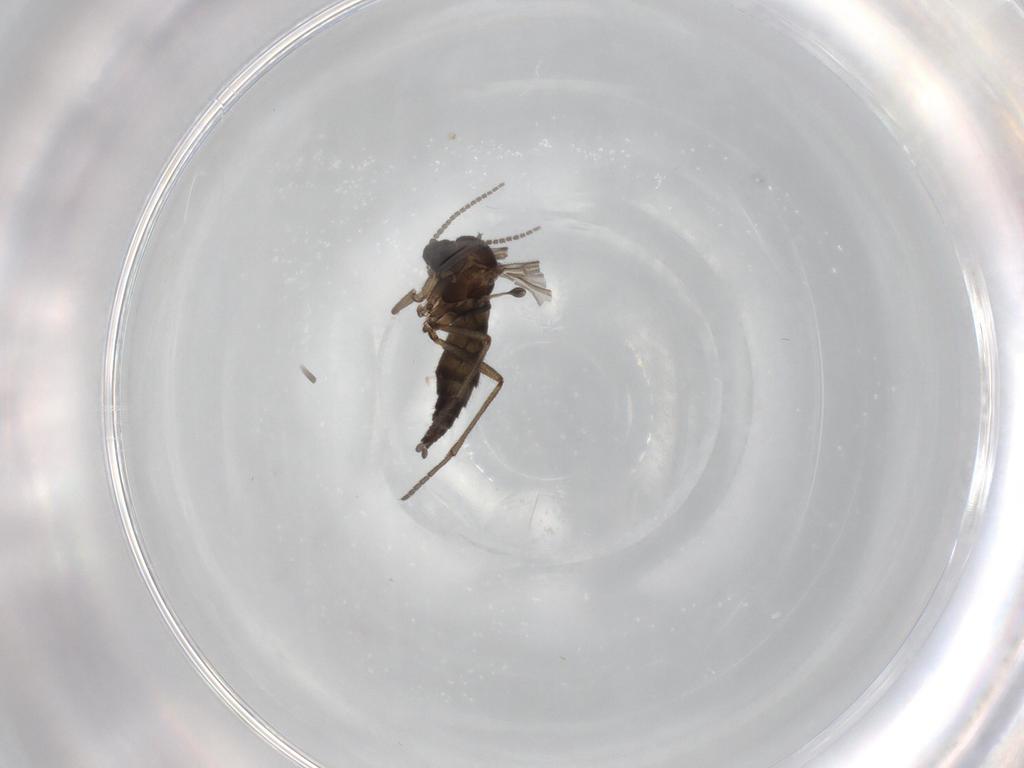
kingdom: Animalia
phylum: Arthropoda
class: Insecta
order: Diptera
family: Sciaridae
